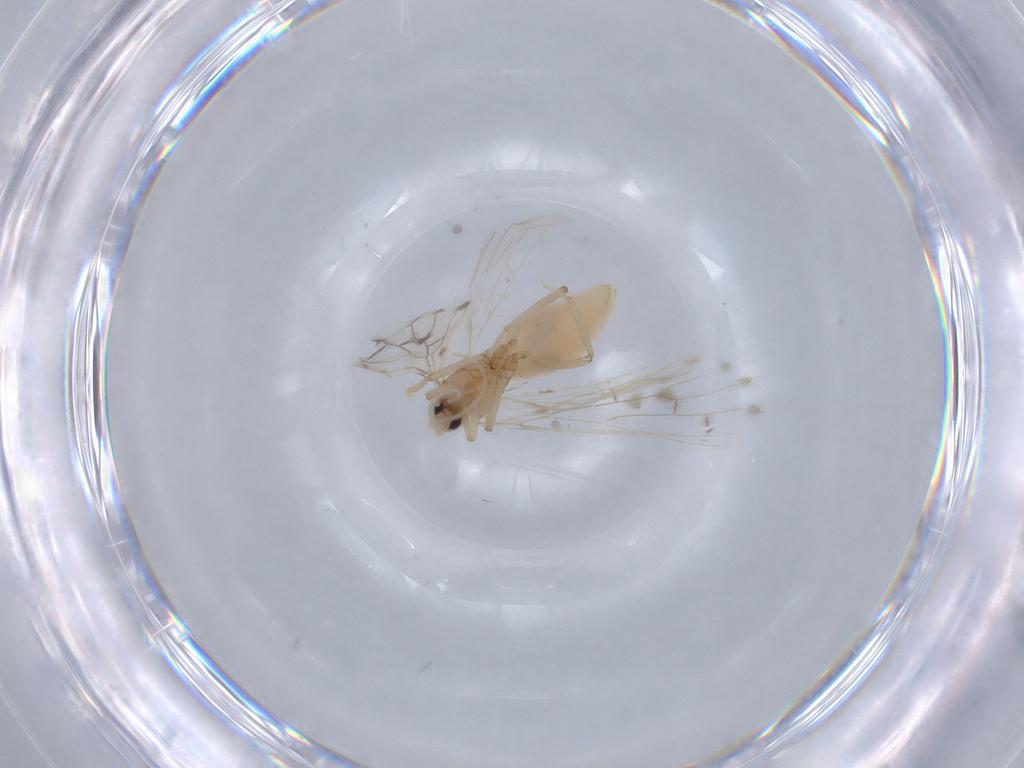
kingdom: Animalia
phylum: Arthropoda
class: Insecta
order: Neuroptera
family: Coniopterygidae
